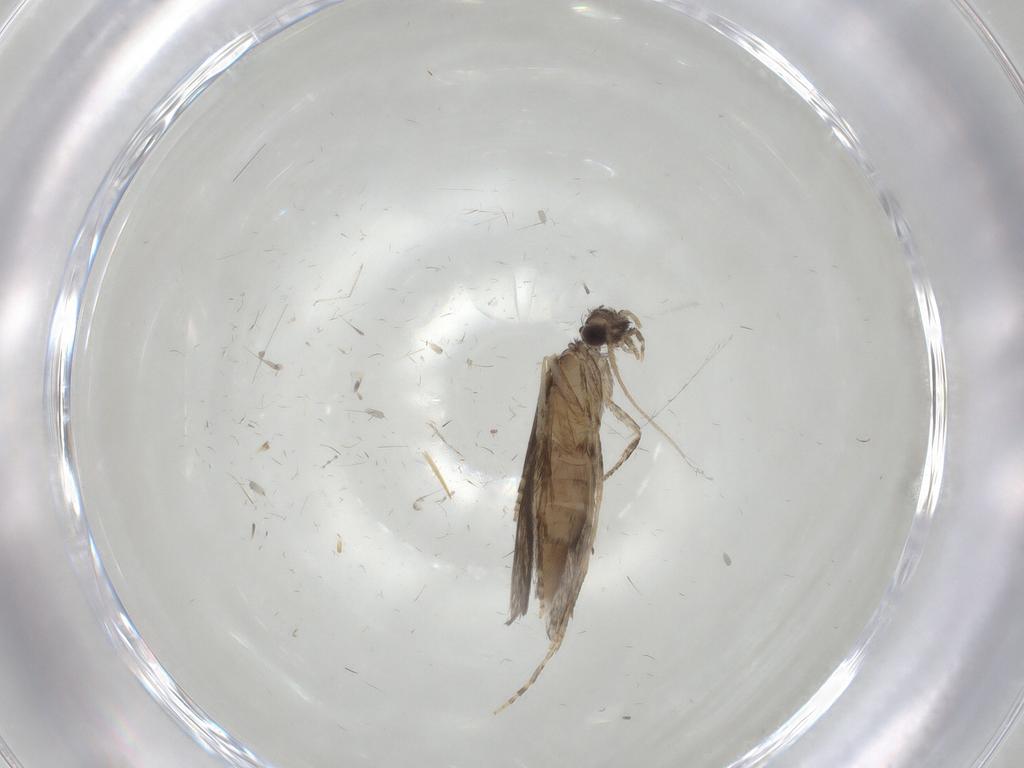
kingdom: Animalia
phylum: Arthropoda
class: Insecta
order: Trichoptera
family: Hydroptilidae
